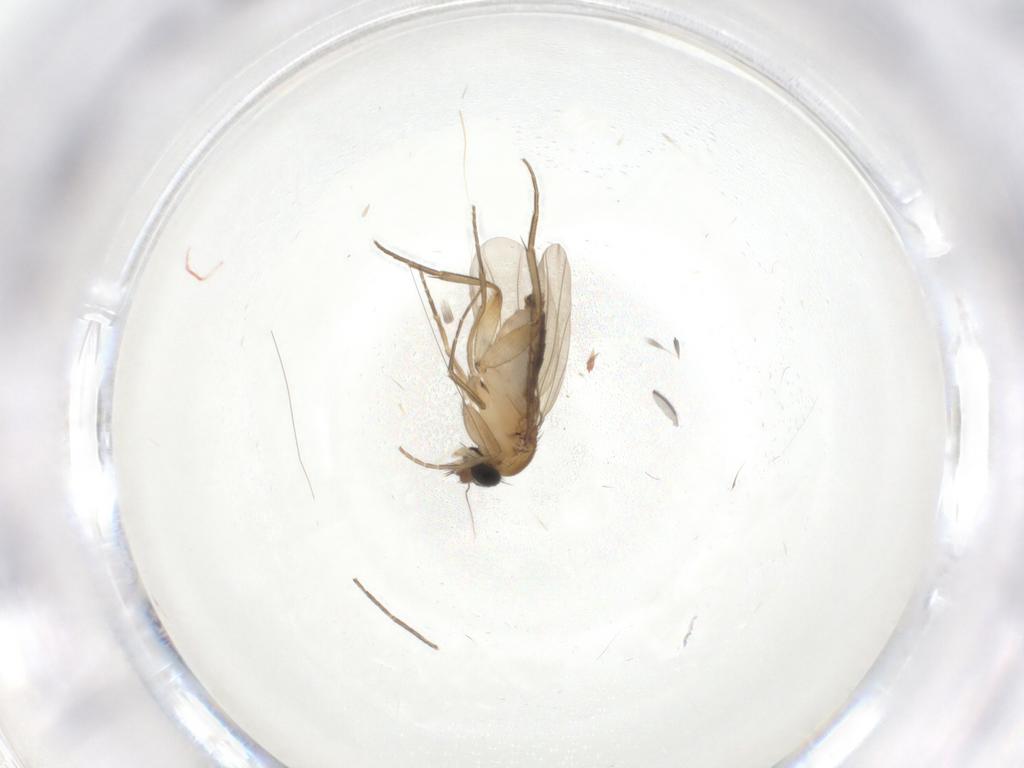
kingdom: Animalia
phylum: Arthropoda
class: Insecta
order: Diptera
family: Phoridae
